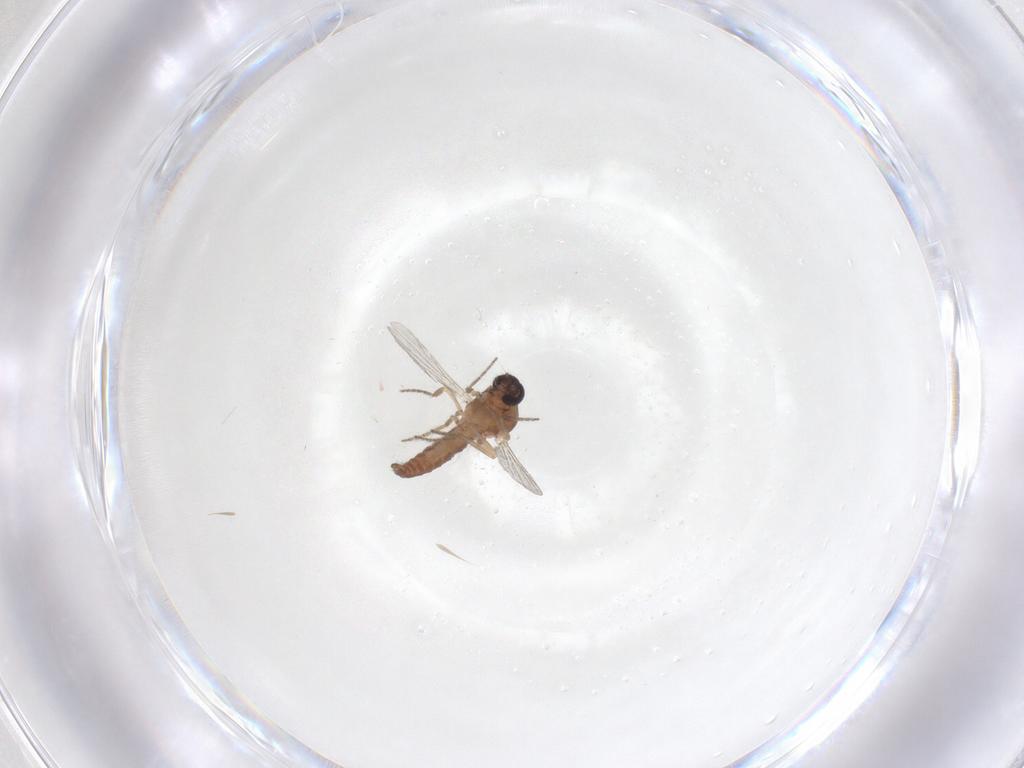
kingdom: Animalia
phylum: Arthropoda
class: Insecta
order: Diptera
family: Ceratopogonidae
